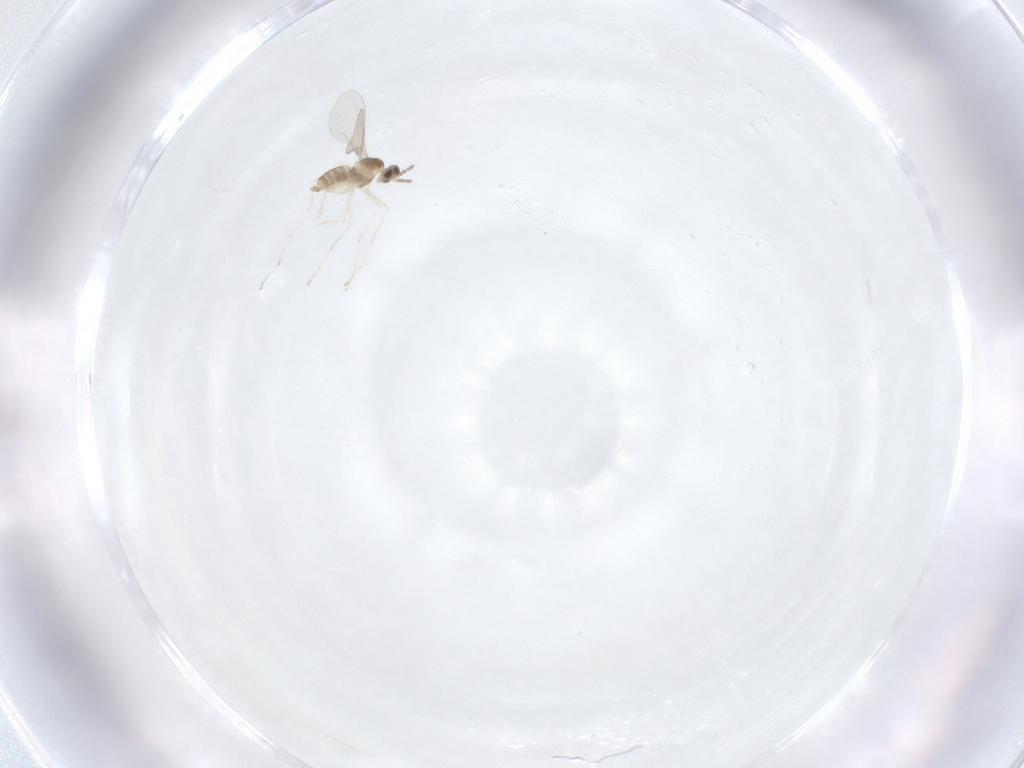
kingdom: Animalia
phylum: Arthropoda
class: Insecta
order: Diptera
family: Cecidomyiidae
